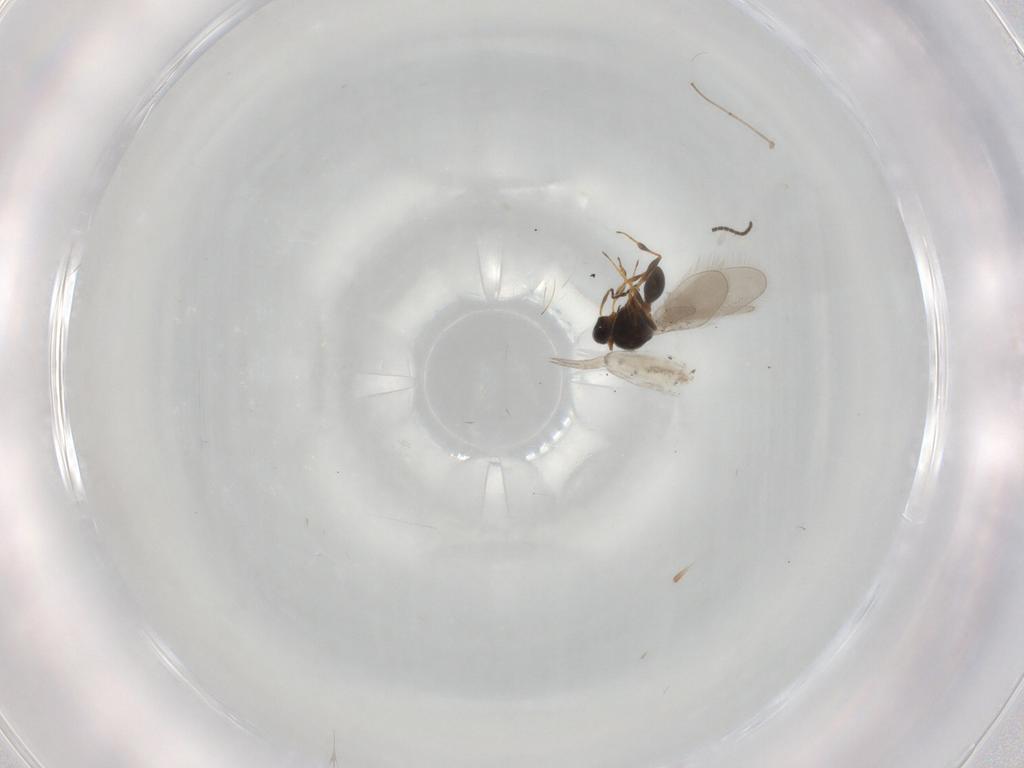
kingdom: Animalia
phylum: Arthropoda
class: Insecta
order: Hymenoptera
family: Platygastridae
